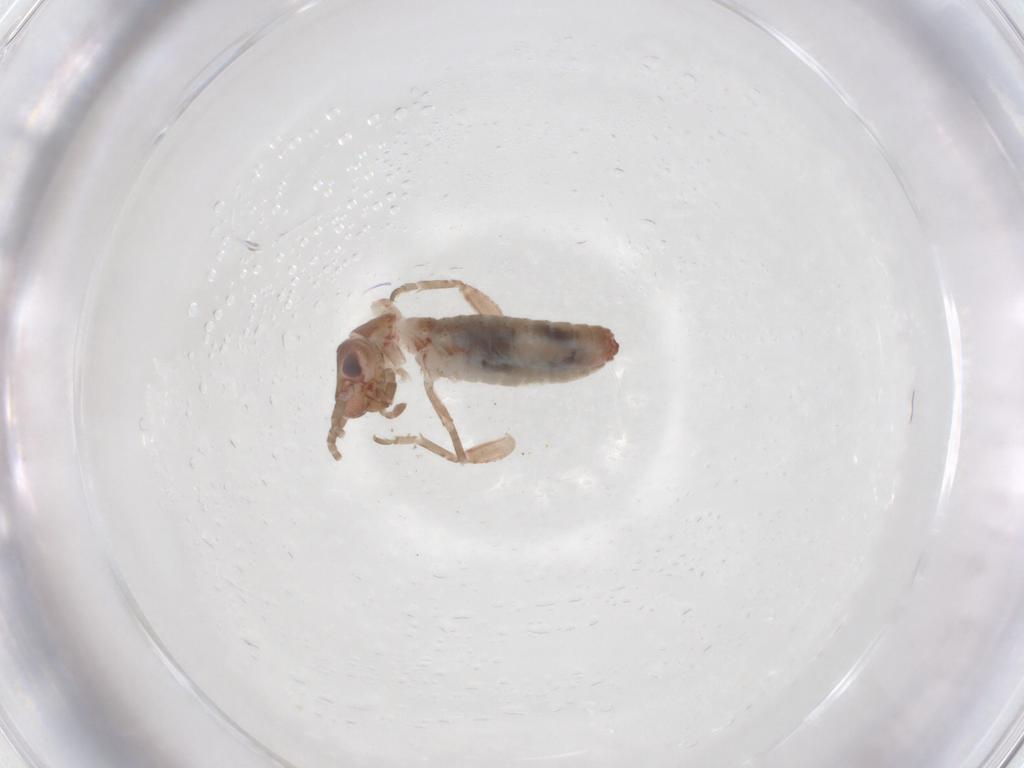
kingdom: Animalia
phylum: Arthropoda
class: Insecta
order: Orthoptera
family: Mogoplistidae
